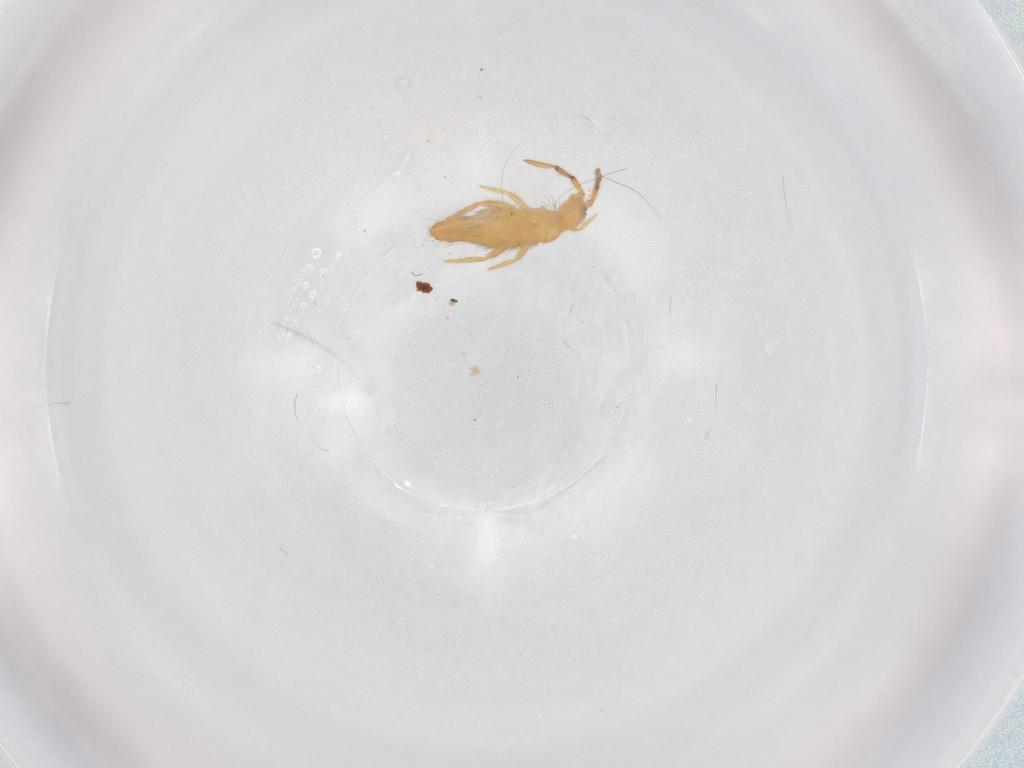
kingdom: Animalia
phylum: Arthropoda
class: Collembola
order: Entomobryomorpha
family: Entomobryidae
